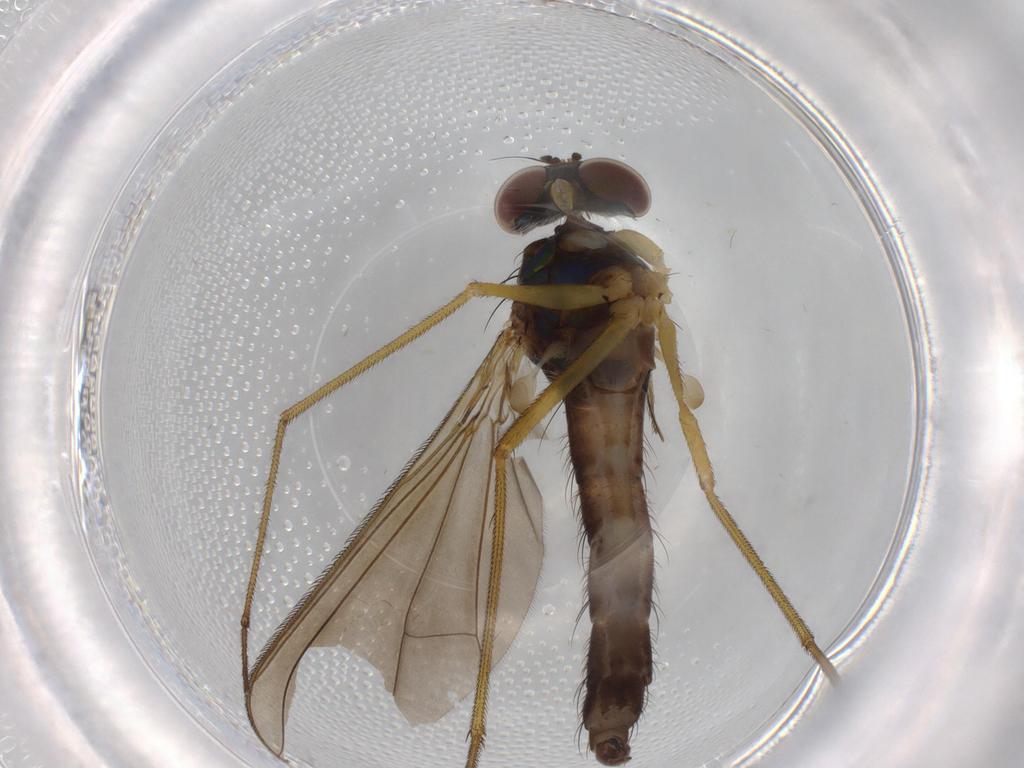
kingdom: Animalia
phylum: Arthropoda
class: Insecta
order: Diptera
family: Dolichopodidae
